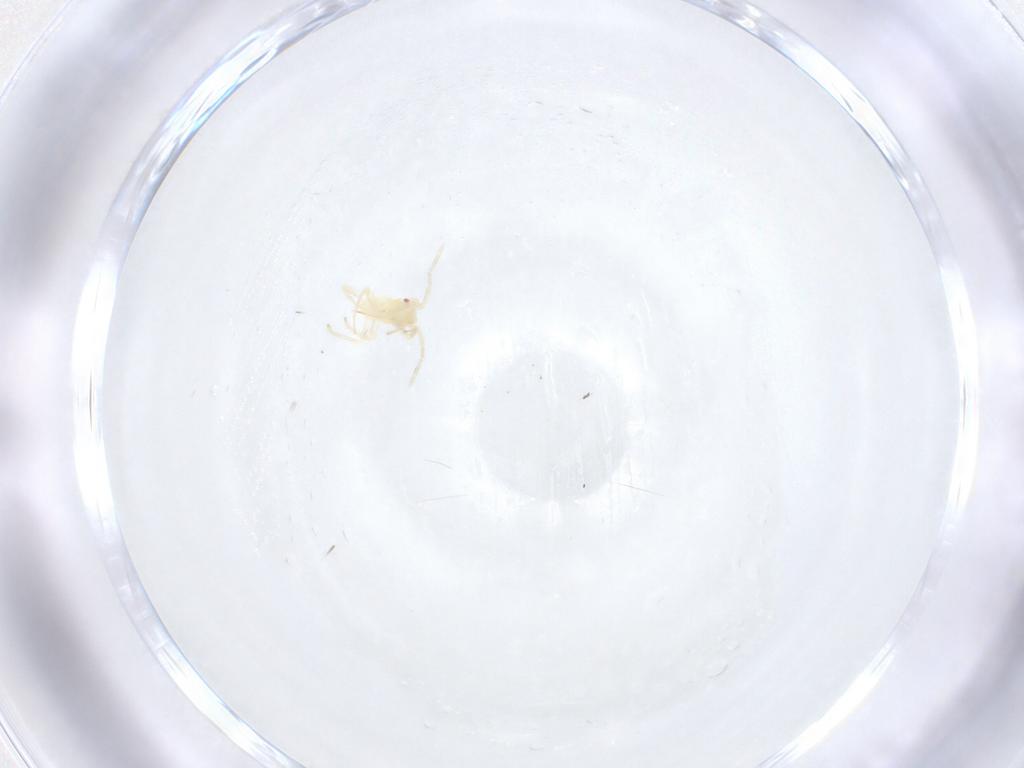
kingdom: Animalia
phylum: Arthropoda
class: Insecta
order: Hemiptera
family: Miridae
